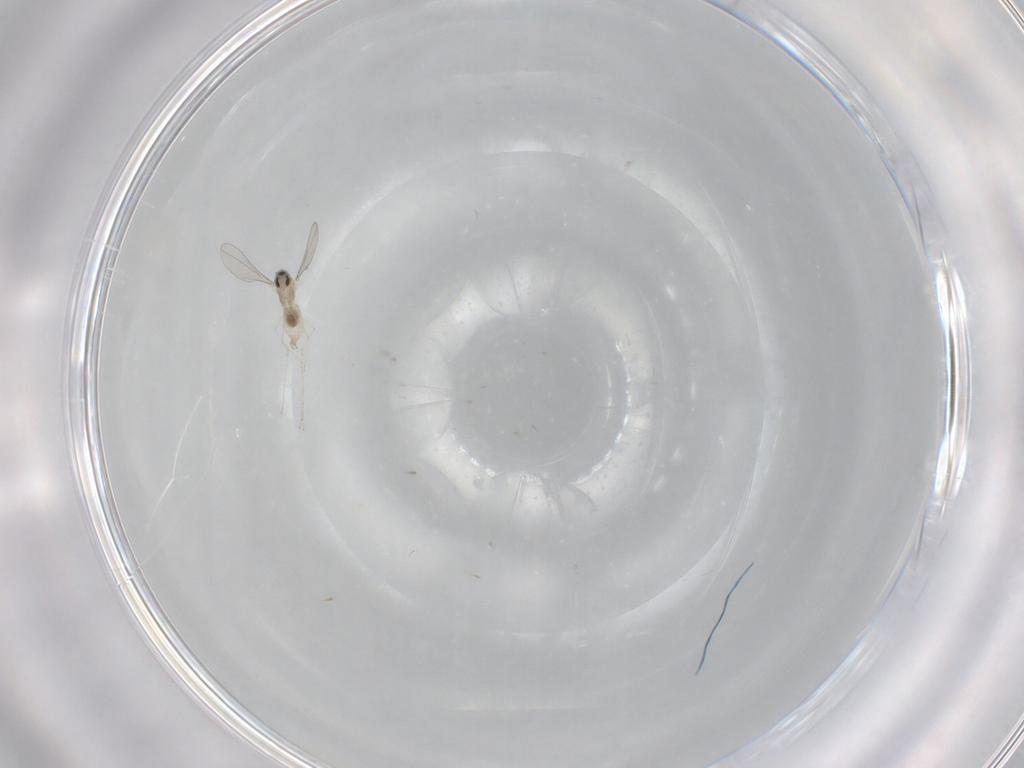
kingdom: Animalia
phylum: Arthropoda
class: Insecta
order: Diptera
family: Cecidomyiidae
